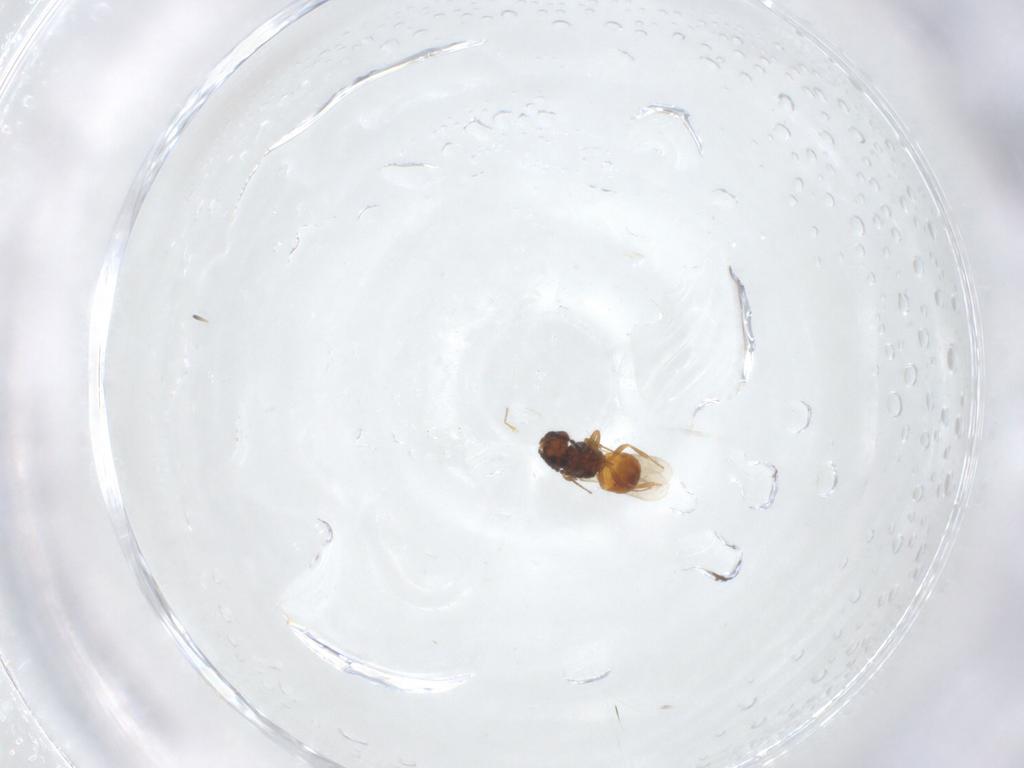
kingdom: Animalia
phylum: Arthropoda
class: Insecta
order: Hymenoptera
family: Scelionidae
